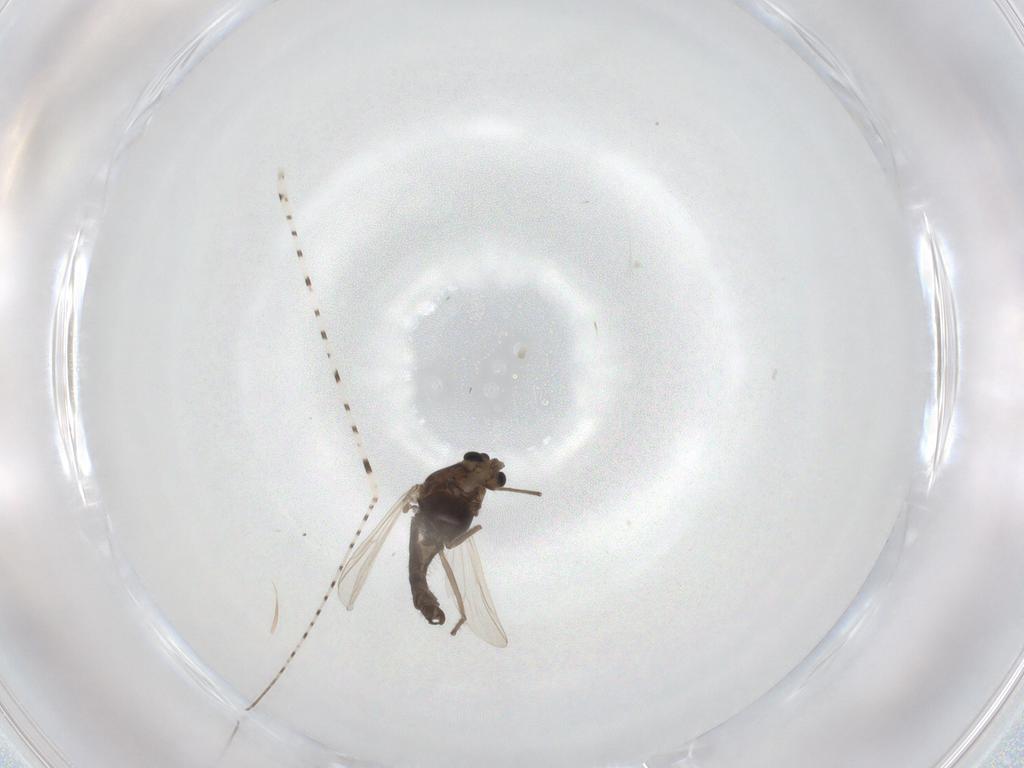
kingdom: Animalia
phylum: Arthropoda
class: Insecta
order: Diptera
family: Chironomidae
